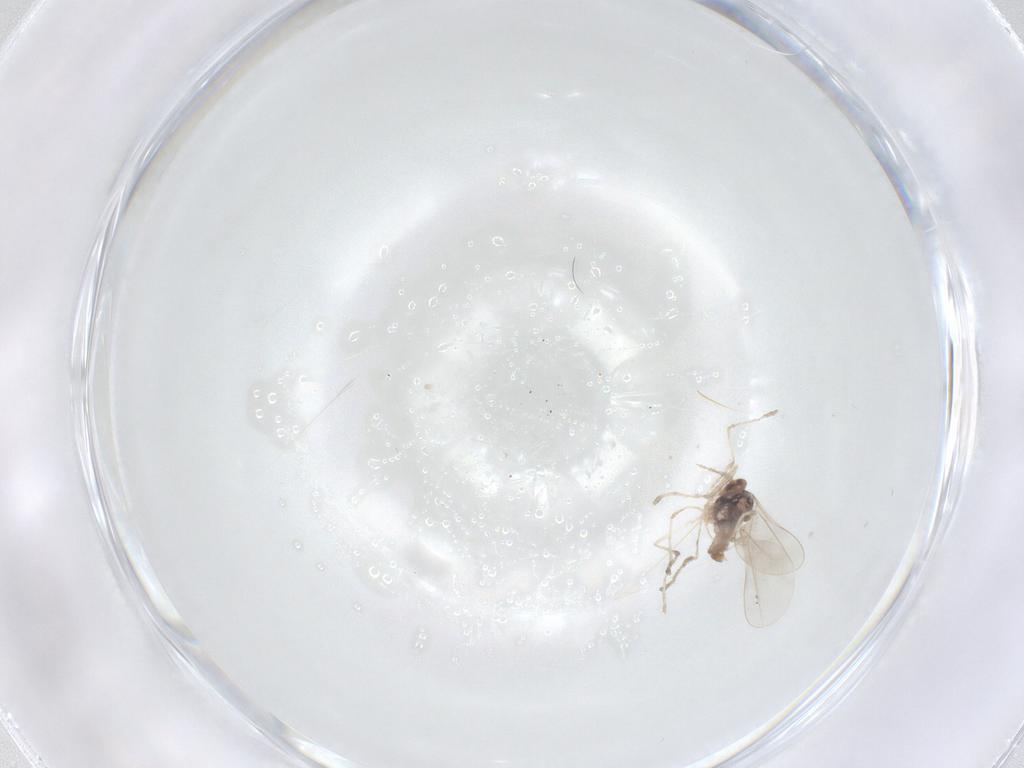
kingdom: Animalia
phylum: Arthropoda
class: Insecta
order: Diptera
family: Cecidomyiidae
